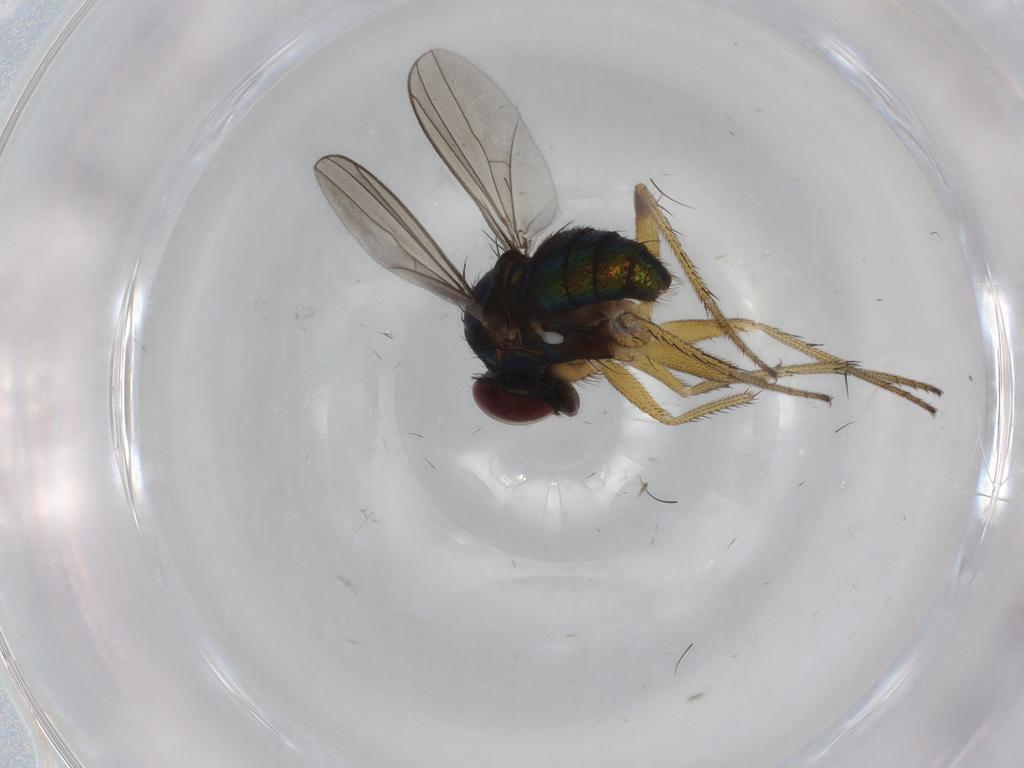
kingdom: Animalia
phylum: Arthropoda
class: Insecta
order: Diptera
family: Dolichopodidae
